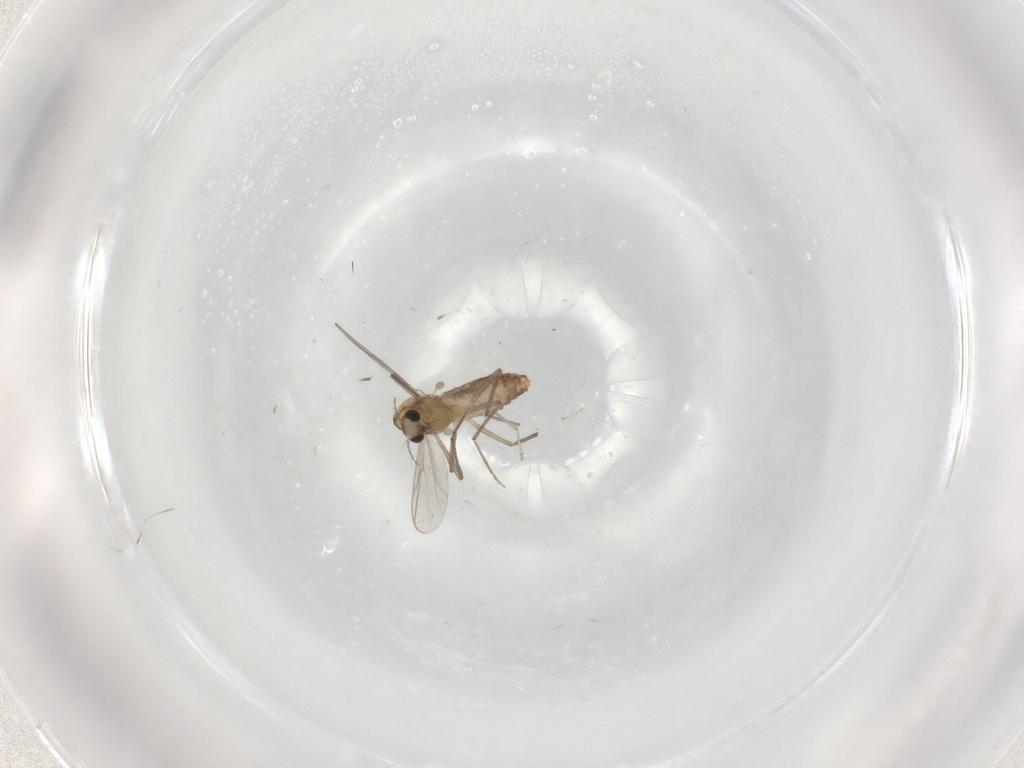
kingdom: Animalia
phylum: Arthropoda
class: Insecta
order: Diptera
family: Chironomidae
